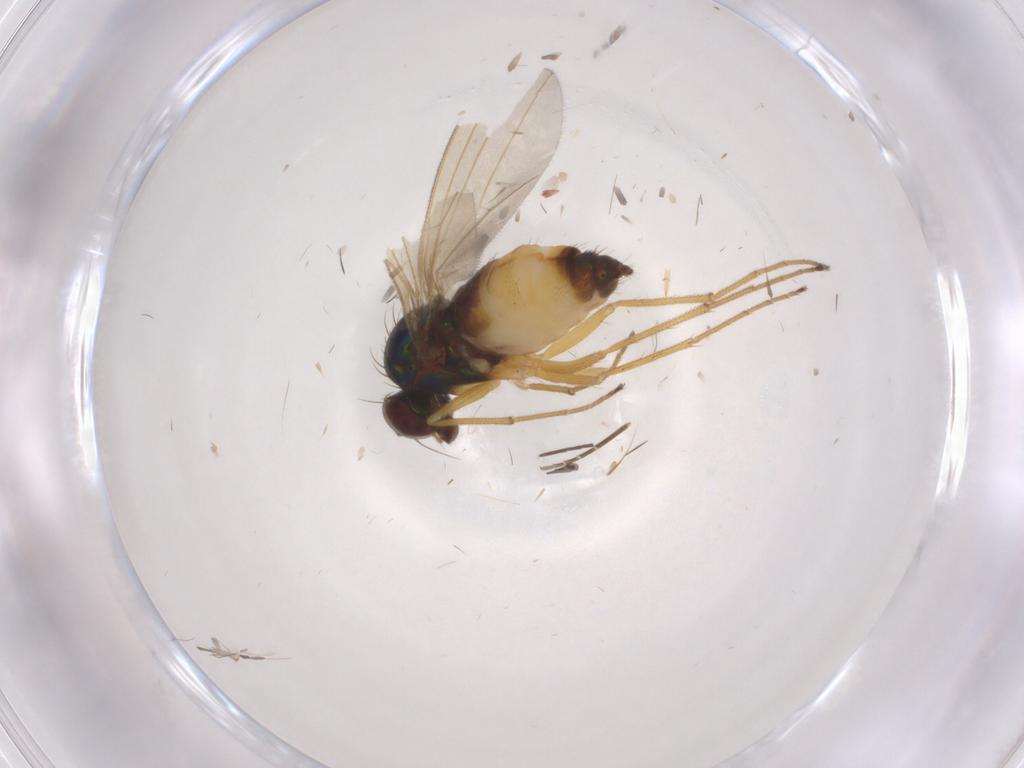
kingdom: Animalia
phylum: Arthropoda
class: Insecta
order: Diptera
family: Dolichopodidae
